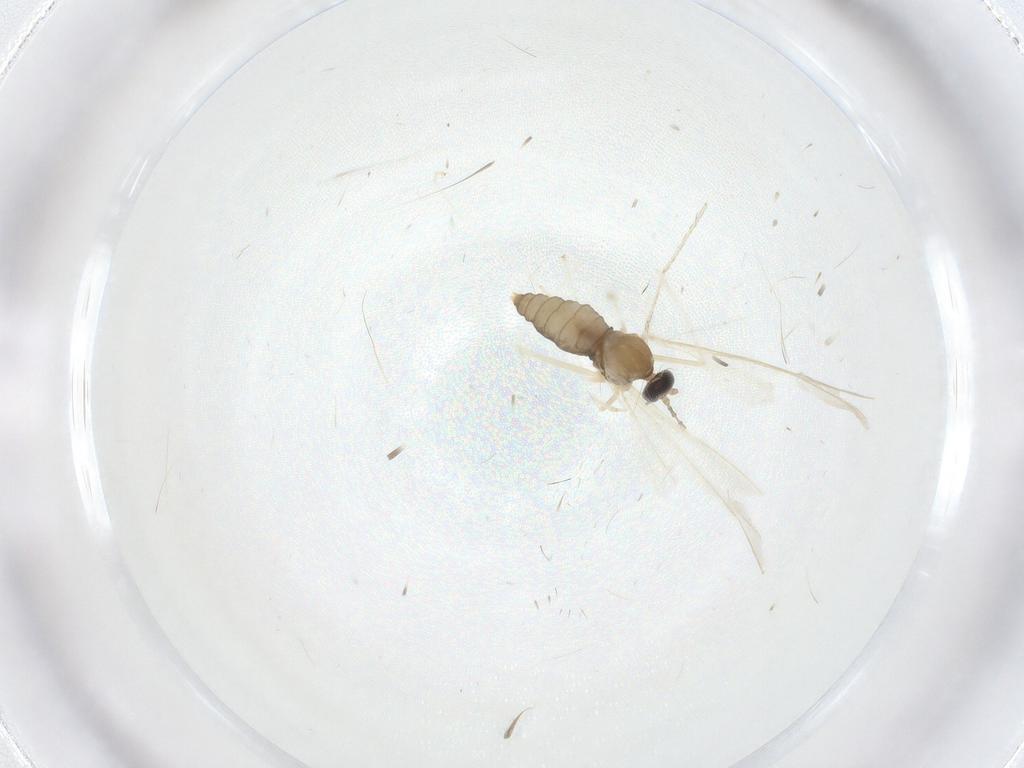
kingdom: Animalia
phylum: Arthropoda
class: Insecta
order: Diptera
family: Cecidomyiidae
